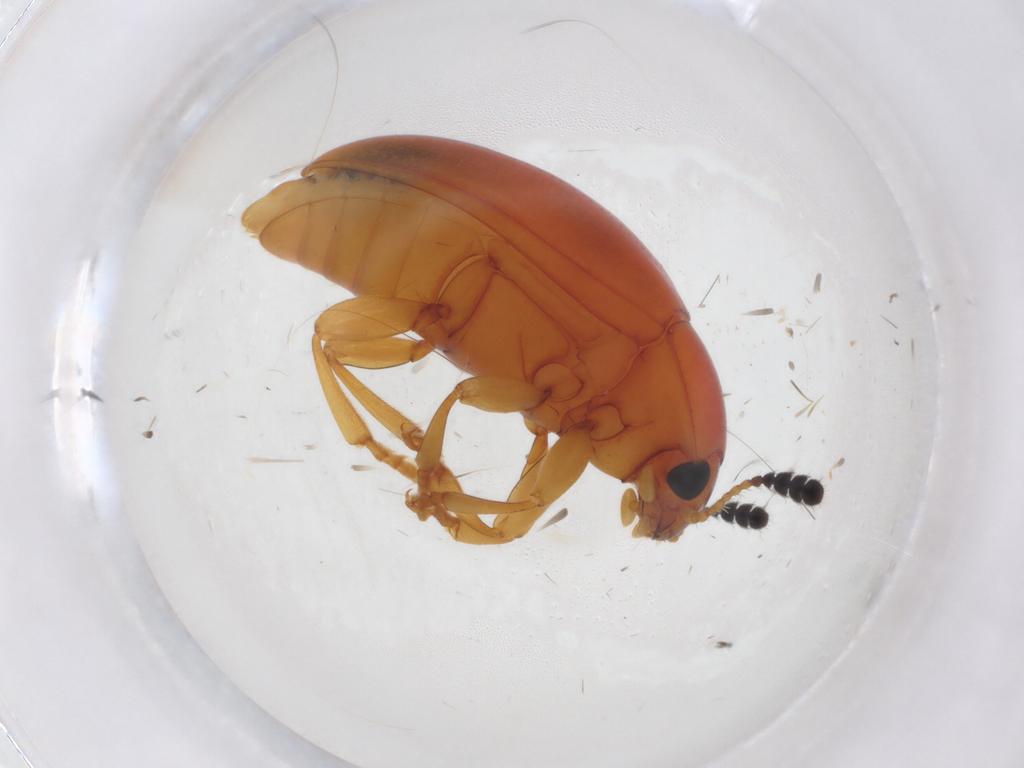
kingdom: Animalia
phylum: Arthropoda
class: Insecta
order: Coleoptera
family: Erotylidae
